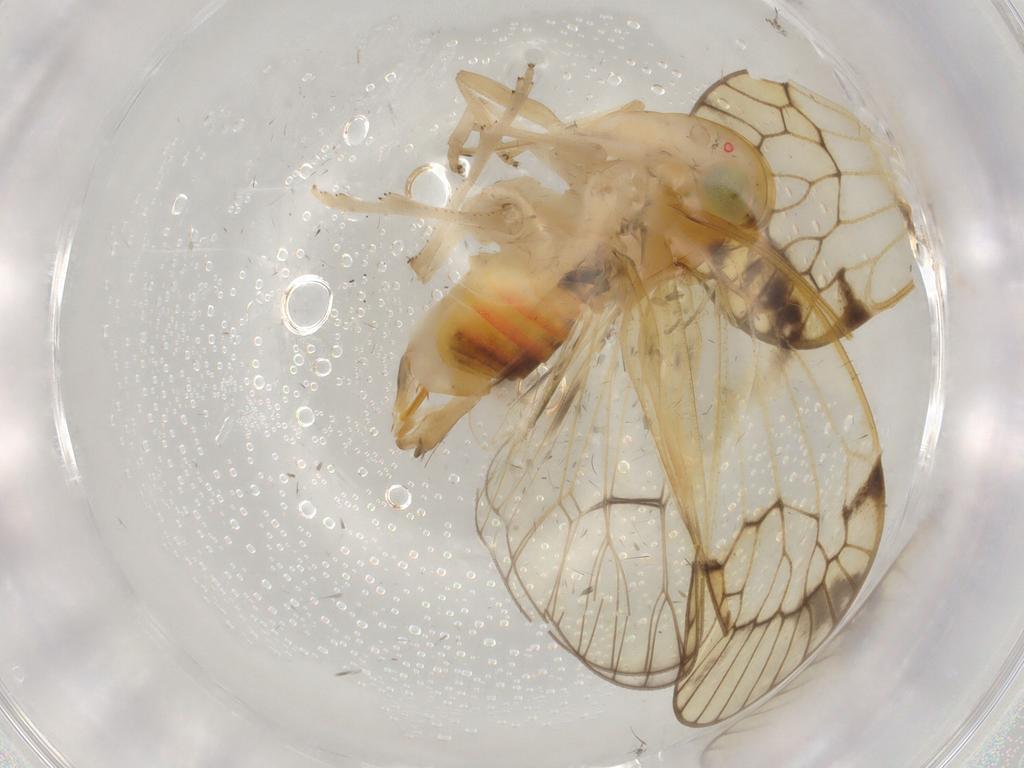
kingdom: Animalia
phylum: Arthropoda
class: Insecta
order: Hemiptera
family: Cixiidae
